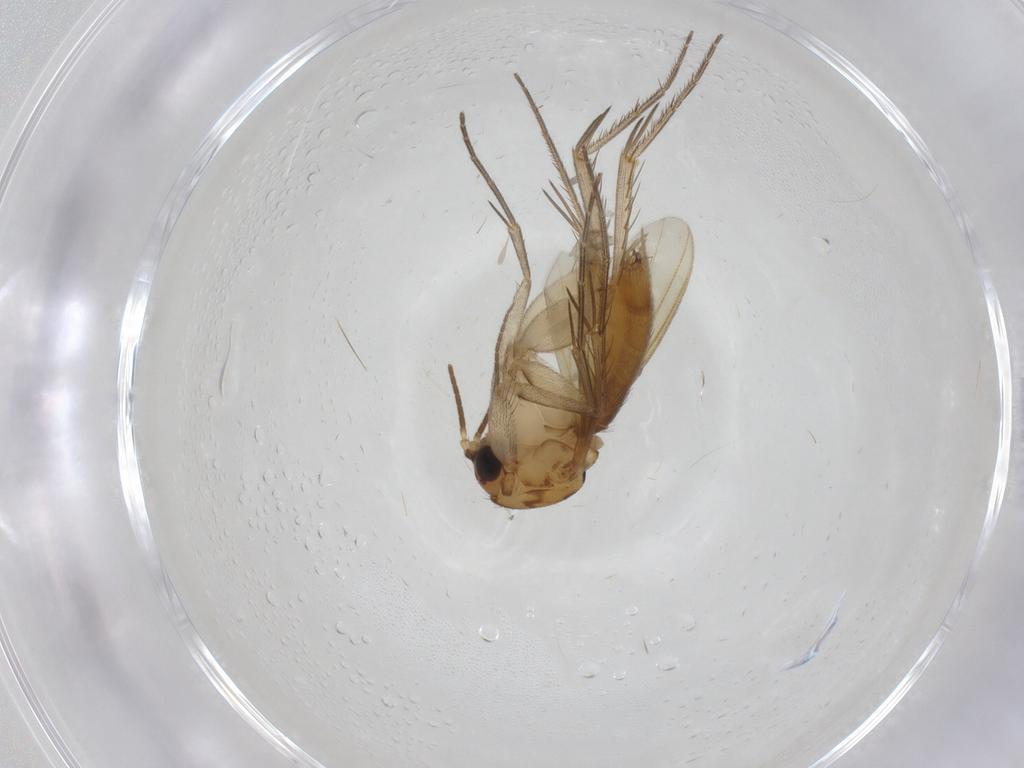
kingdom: Animalia
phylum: Arthropoda
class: Insecta
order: Diptera
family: Mycetophilidae
